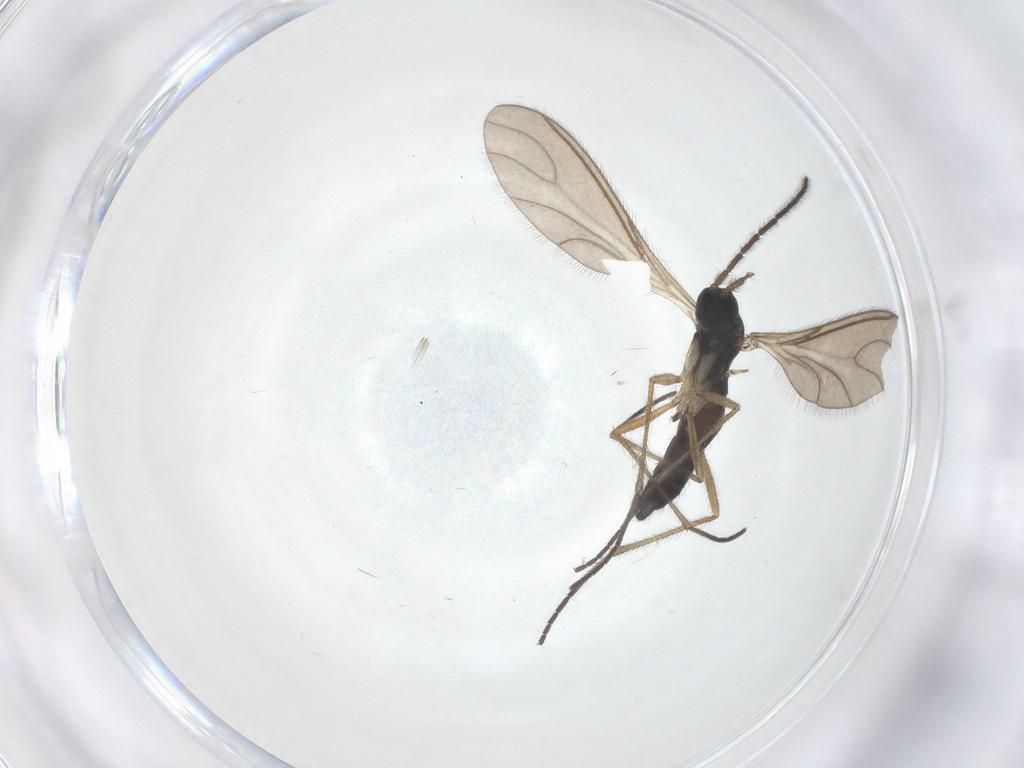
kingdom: Animalia
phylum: Arthropoda
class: Insecta
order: Diptera
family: Sciaridae
